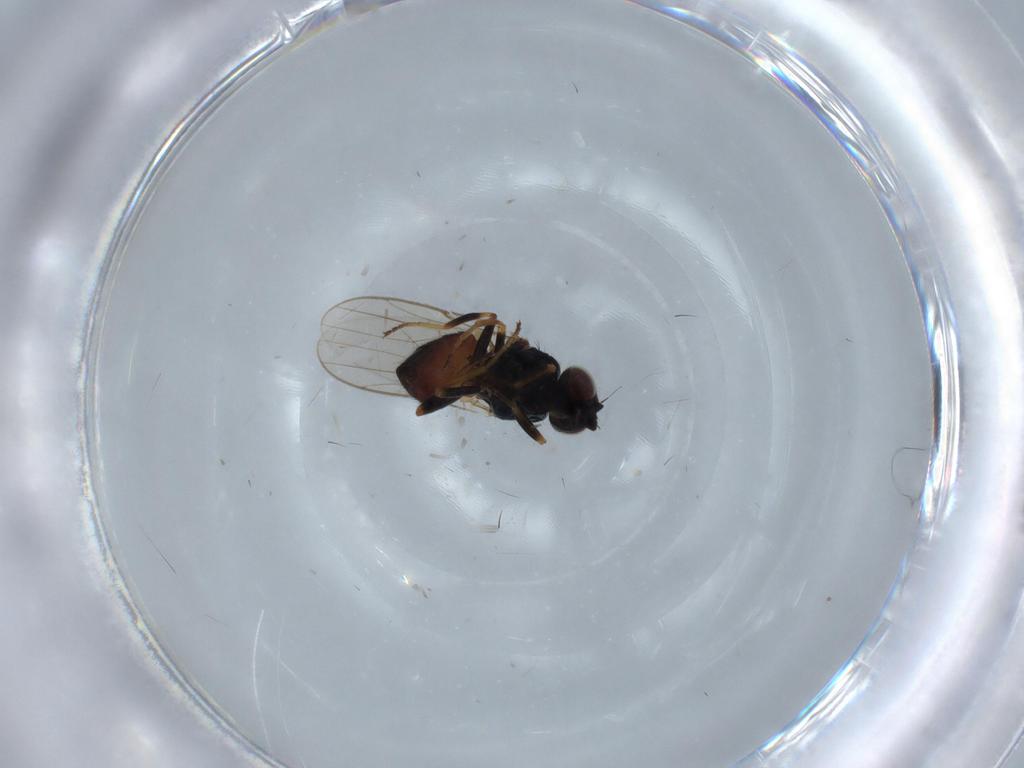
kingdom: Animalia
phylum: Arthropoda
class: Insecta
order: Diptera
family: Chloropidae
